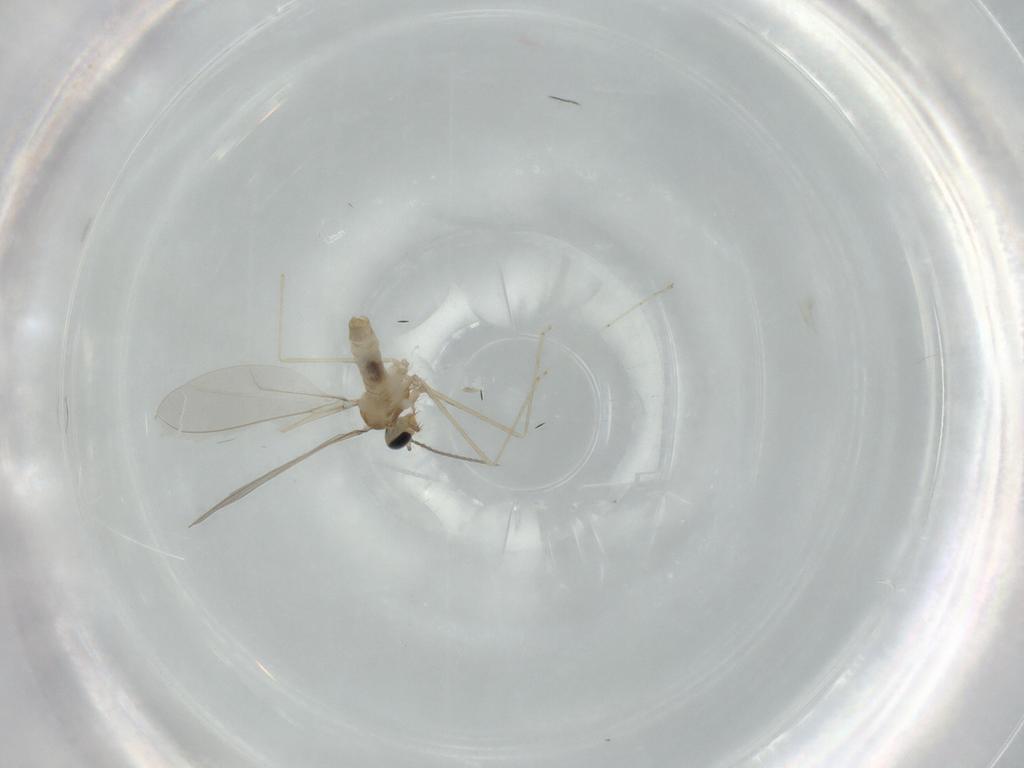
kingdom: Animalia
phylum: Arthropoda
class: Insecta
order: Diptera
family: Cecidomyiidae
